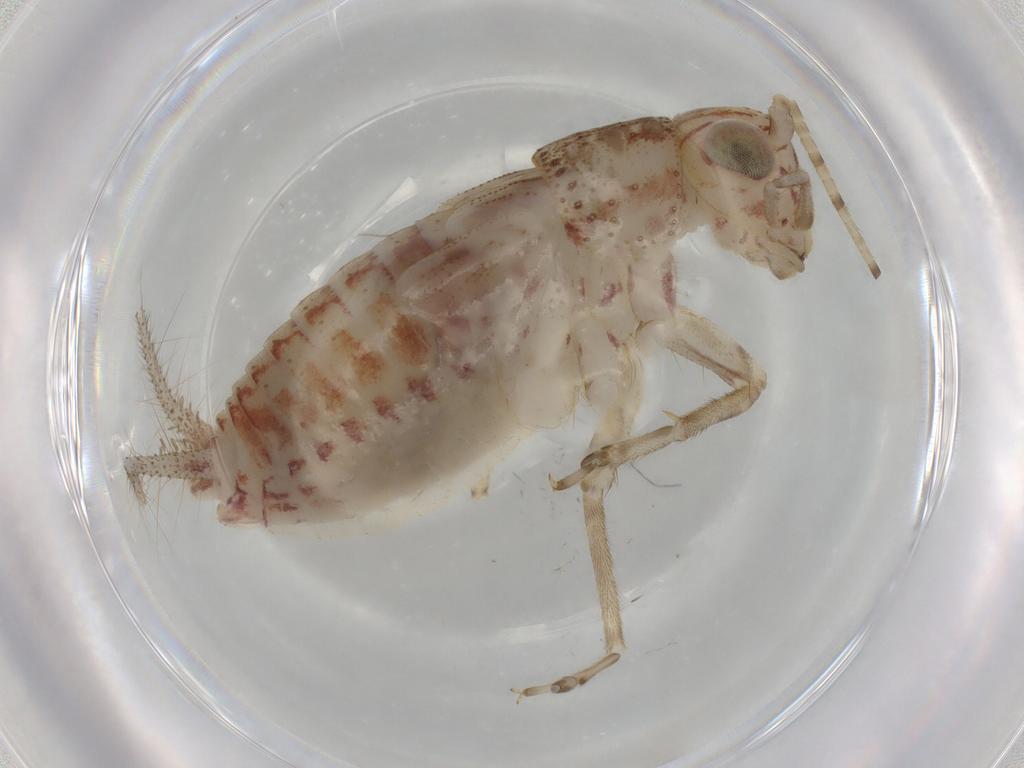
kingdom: Animalia
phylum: Arthropoda
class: Insecta
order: Orthoptera
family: Trigonidiidae
